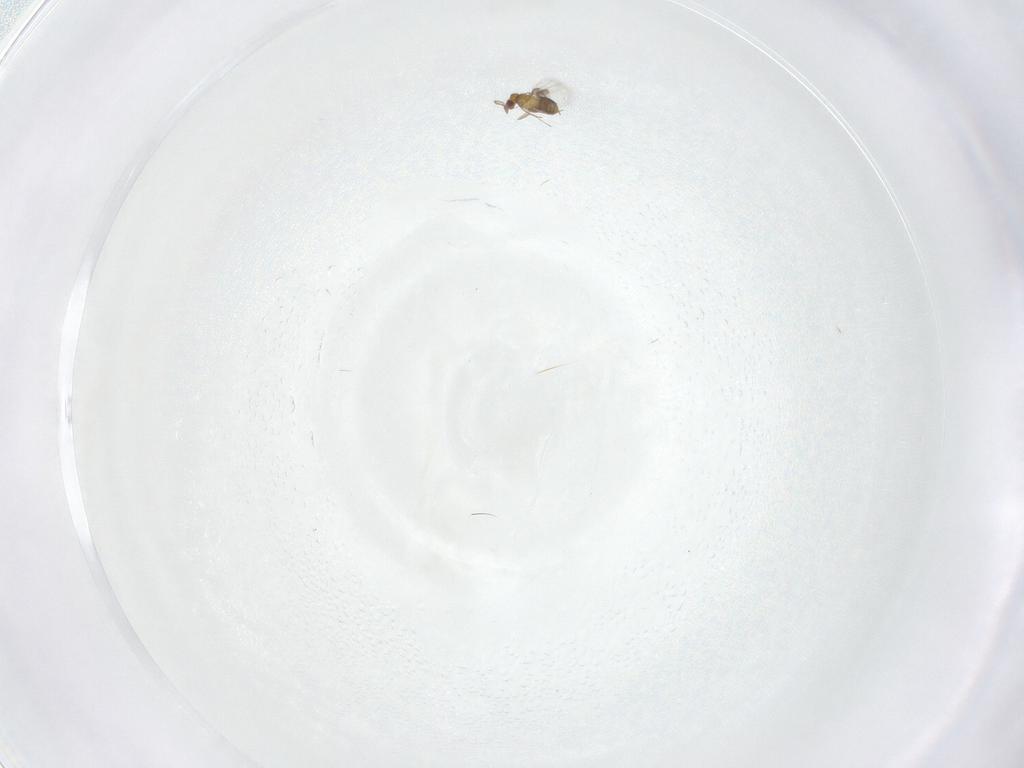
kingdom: Animalia
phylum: Arthropoda
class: Insecta
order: Hymenoptera
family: Trichogrammatidae
